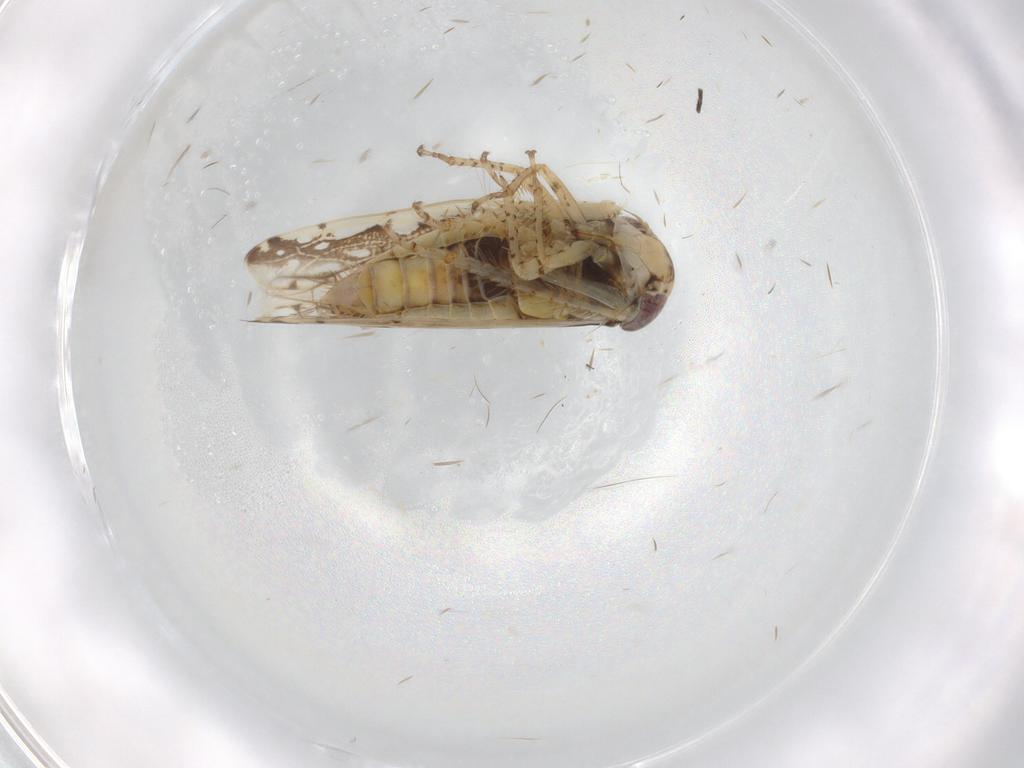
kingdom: Animalia
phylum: Arthropoda
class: Insecta
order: Hemiptera
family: Cicadellidae
